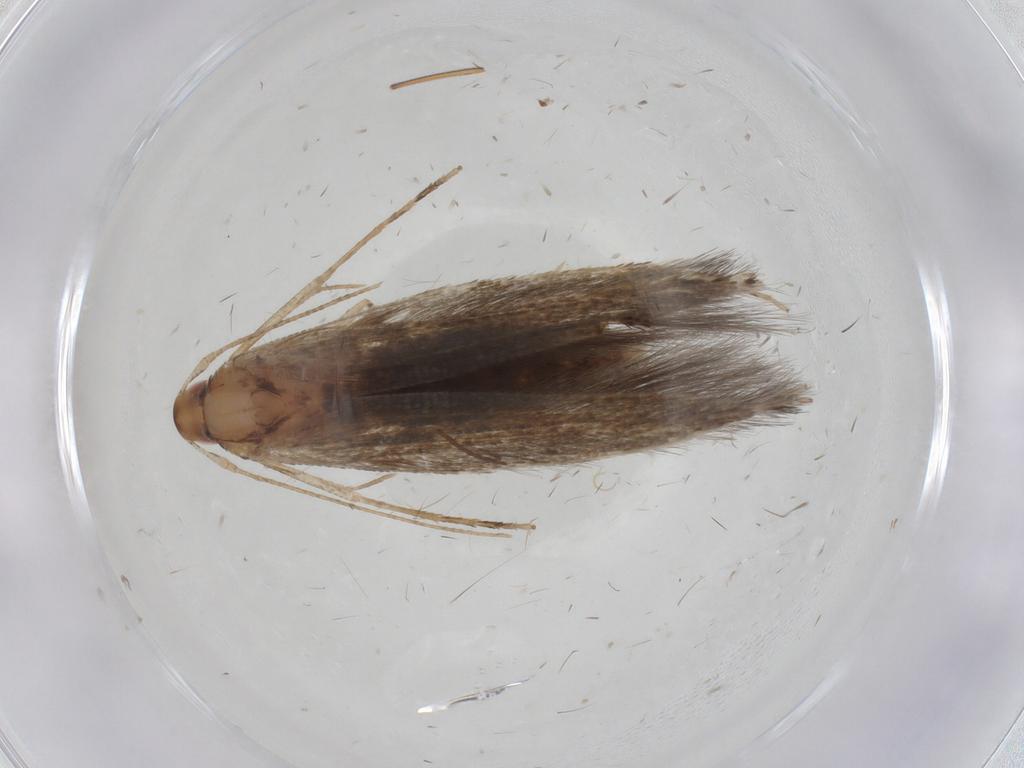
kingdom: Animalia
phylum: Arthropoda
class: Insecta
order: Lepidoptera
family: Cosmopterigidae
